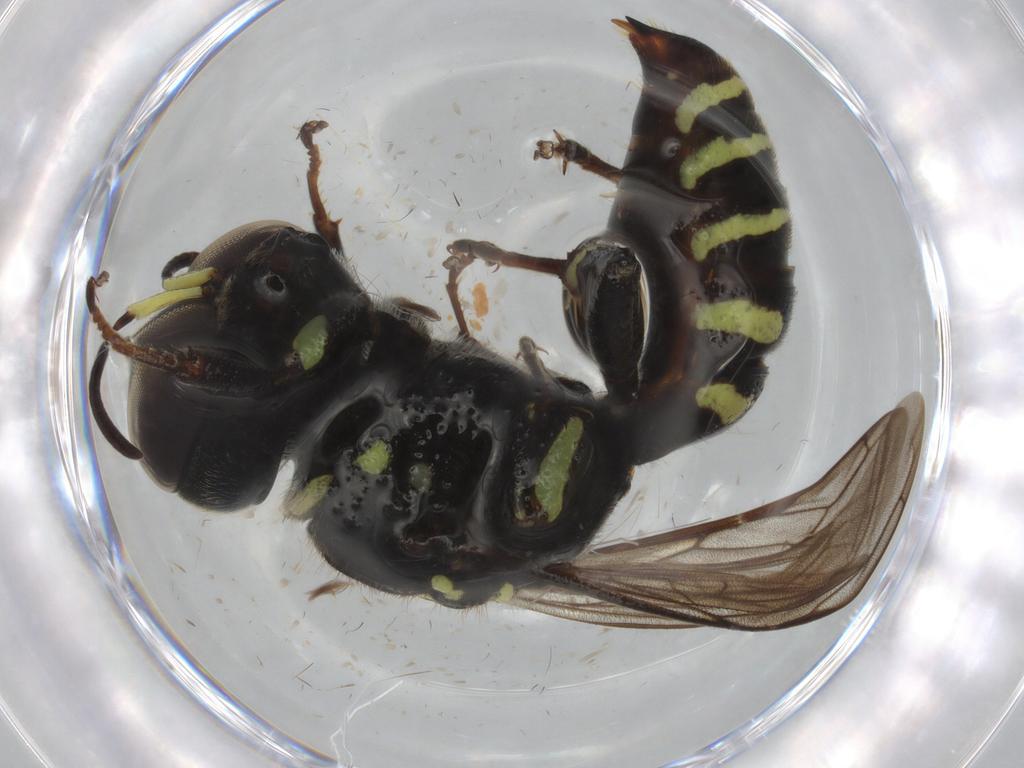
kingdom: Animalia
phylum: Arthropoda
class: Insecta
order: Hymenoptera
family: Crabronidae
